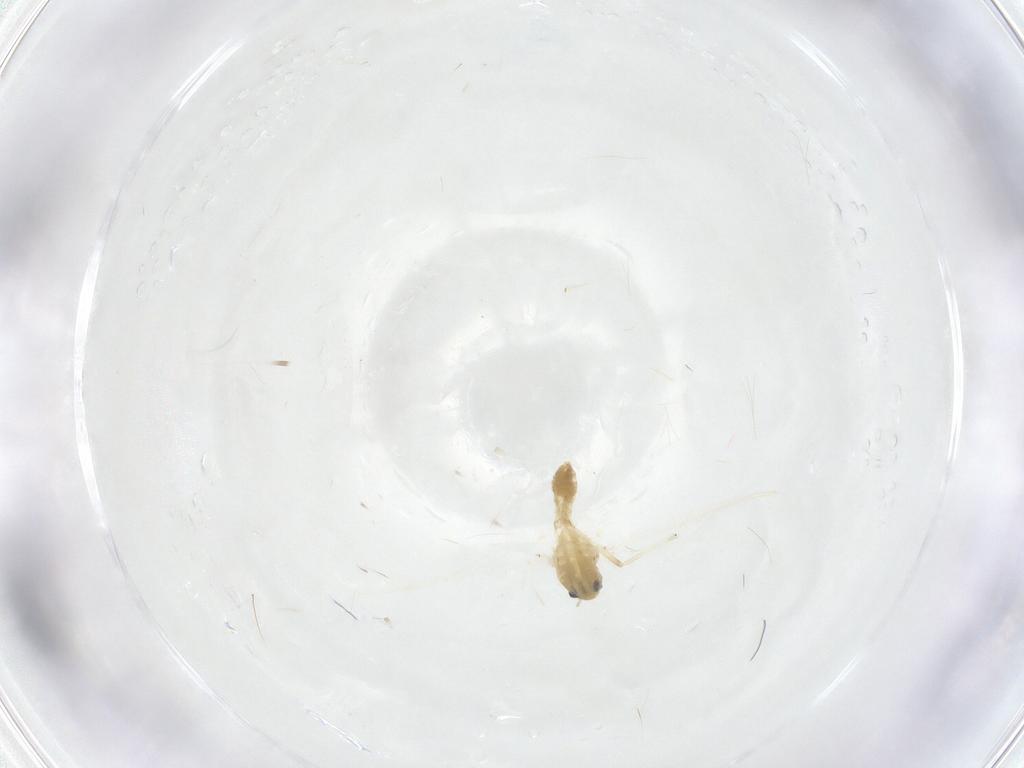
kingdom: Animalia
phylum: Arthropoda
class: Insecta
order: Diptera
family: Chironomidae
